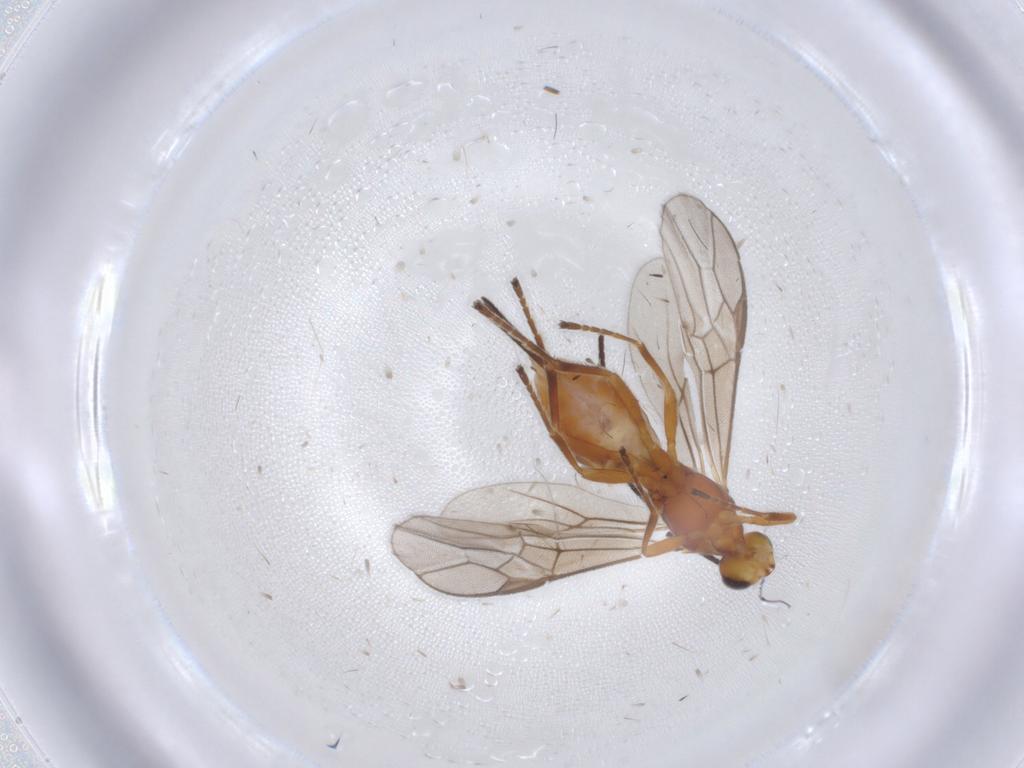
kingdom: Animalia
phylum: Arthropoda
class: Insecta
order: Hymenoptera
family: Braconidae
